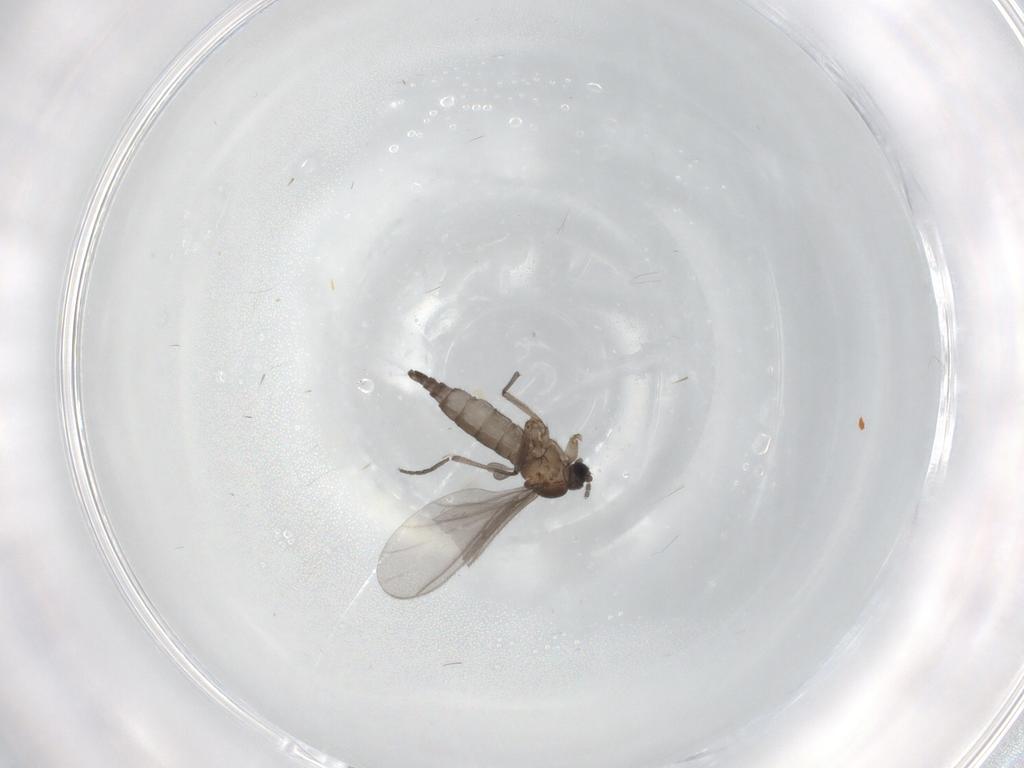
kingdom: Animalia
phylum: Arthropoda
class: Insecta
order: Diptera
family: Sciaridae
